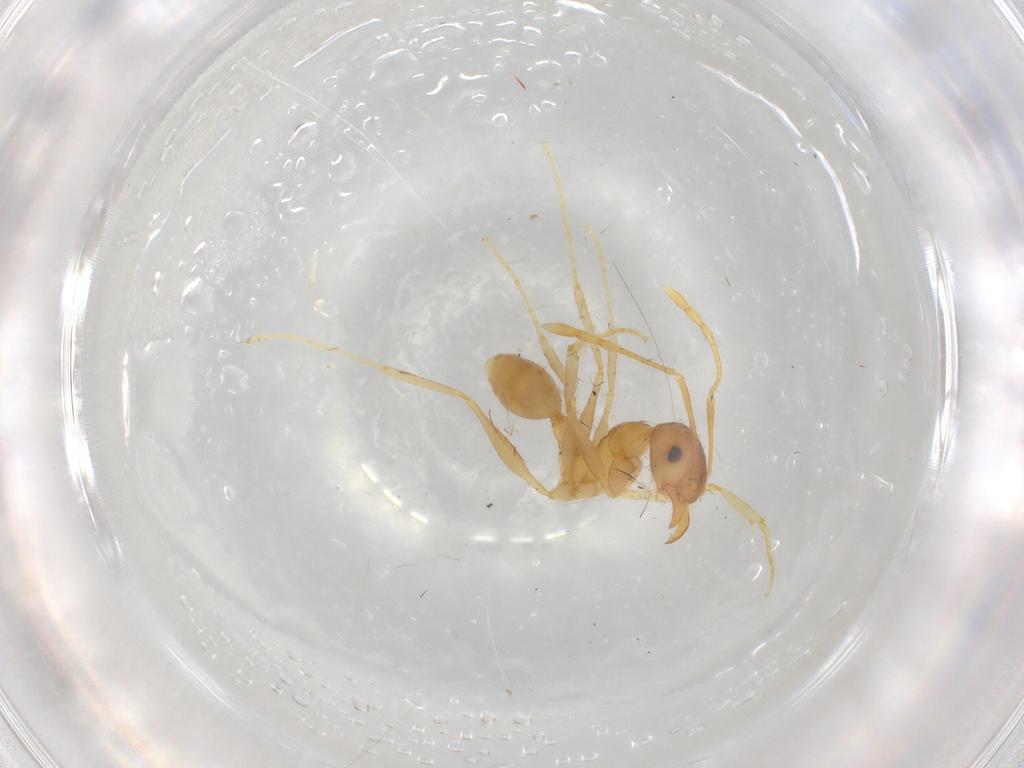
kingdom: Animalia
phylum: Arthropoda
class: Insecta
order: Hymenoptera
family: Formicidae
